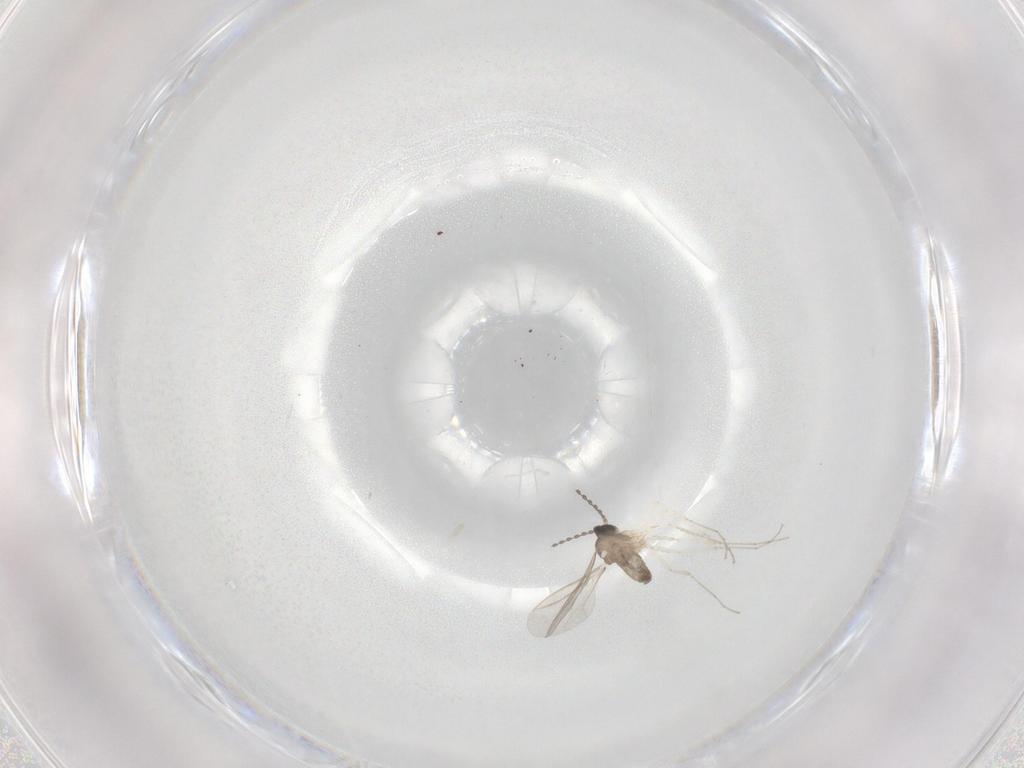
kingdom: Animalia
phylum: Arthropoda
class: Insecta
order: Diptera
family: Cecidomyiidae
